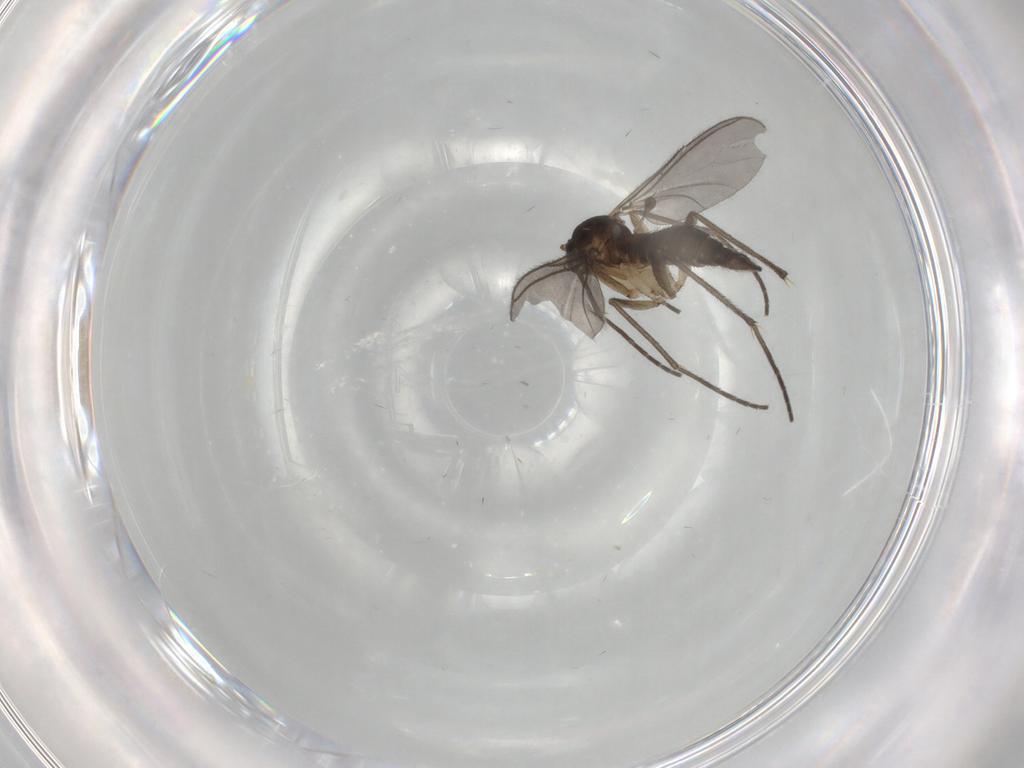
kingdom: Animalia
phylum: Arthropoda
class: Insecta
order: Diptera
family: Sciaridae
